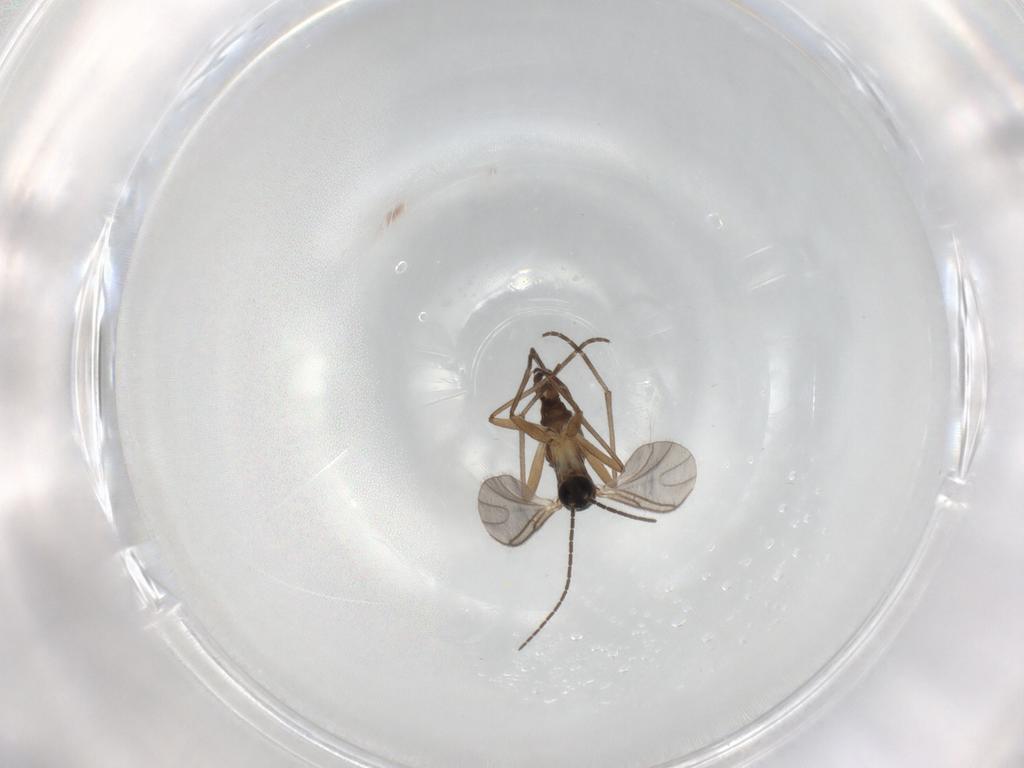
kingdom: Animalia
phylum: Arthropoda
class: Insecta
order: Diptera
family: Cecidomyiidae
